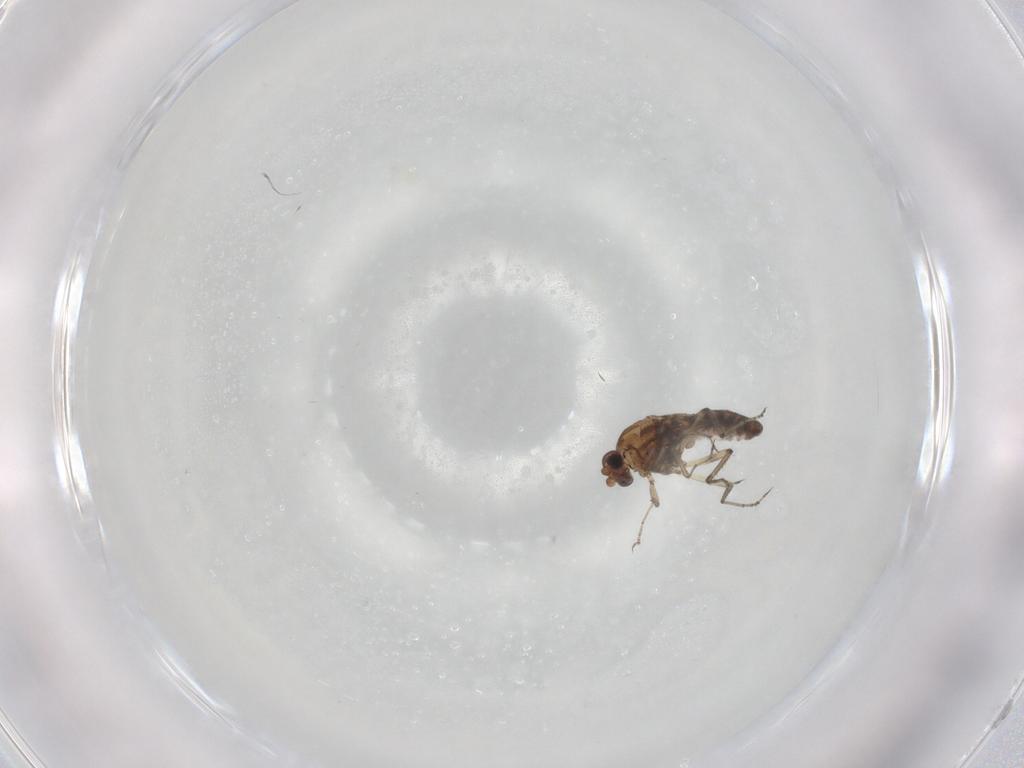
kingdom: Animalia
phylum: Arthropoda
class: Insecta
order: Diptera
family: Ceratopogonidae
